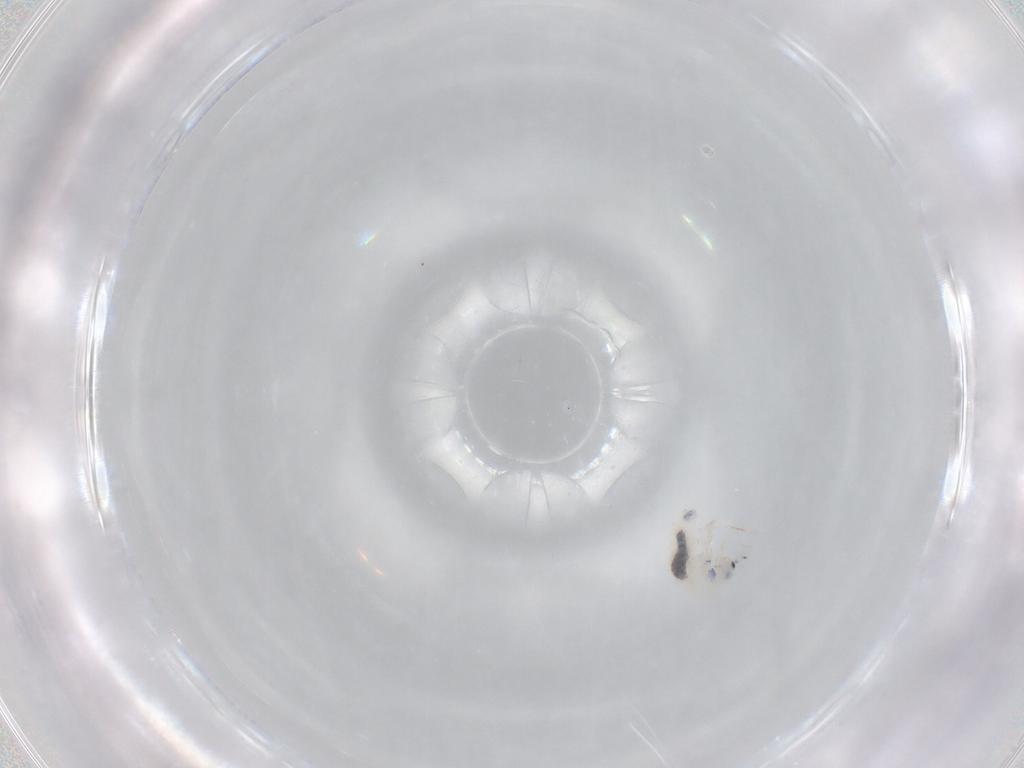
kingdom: Animalia
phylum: Arthropoda
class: Collembola
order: Entomobryomorpha
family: Entomobryidae
